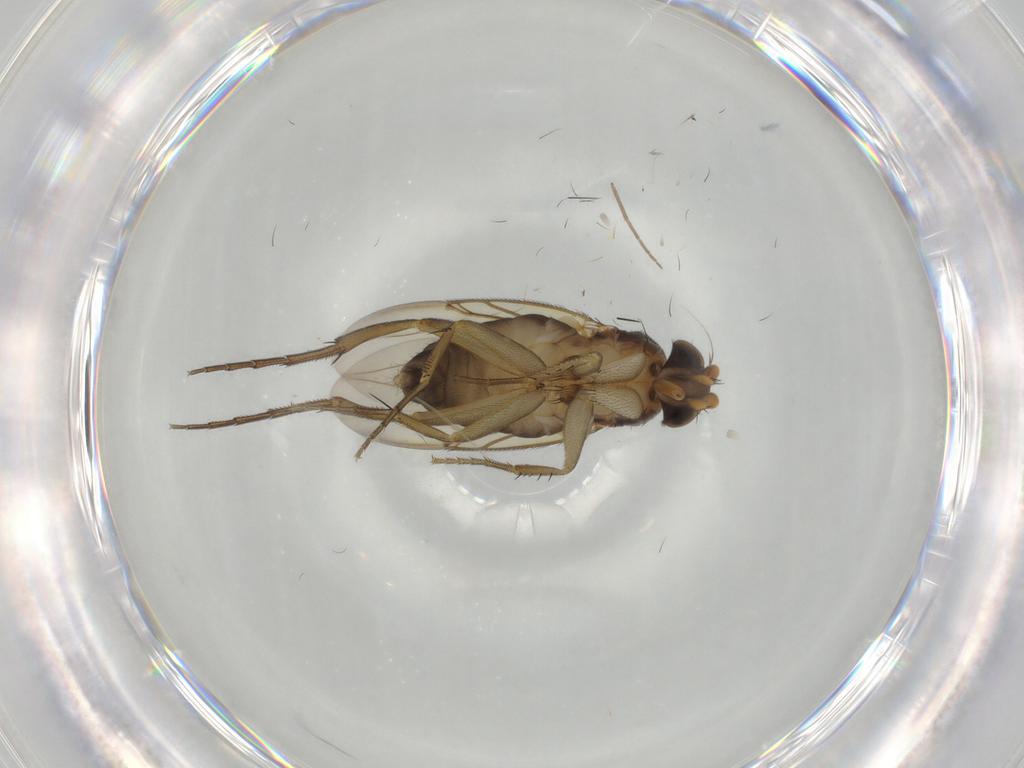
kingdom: Animalia
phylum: Arthropoda
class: Insecta
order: Diptera
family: Phoridae
